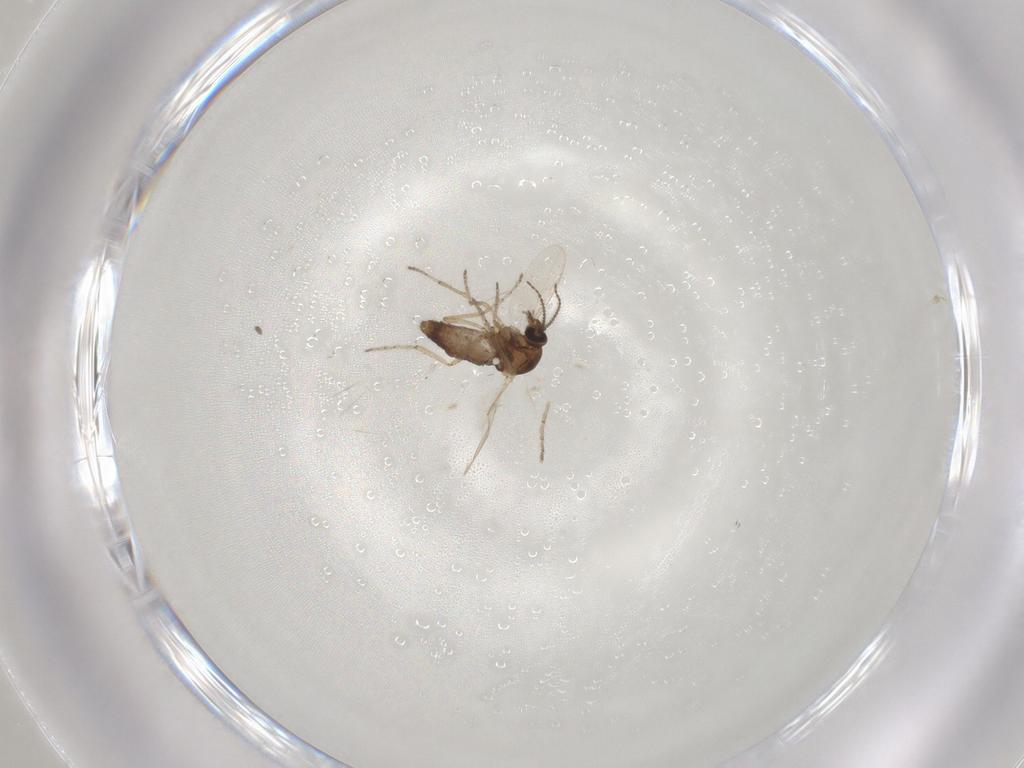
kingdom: Animalia
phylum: Arthropoda
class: Insecta
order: Diptera
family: Ceratopogonidae
